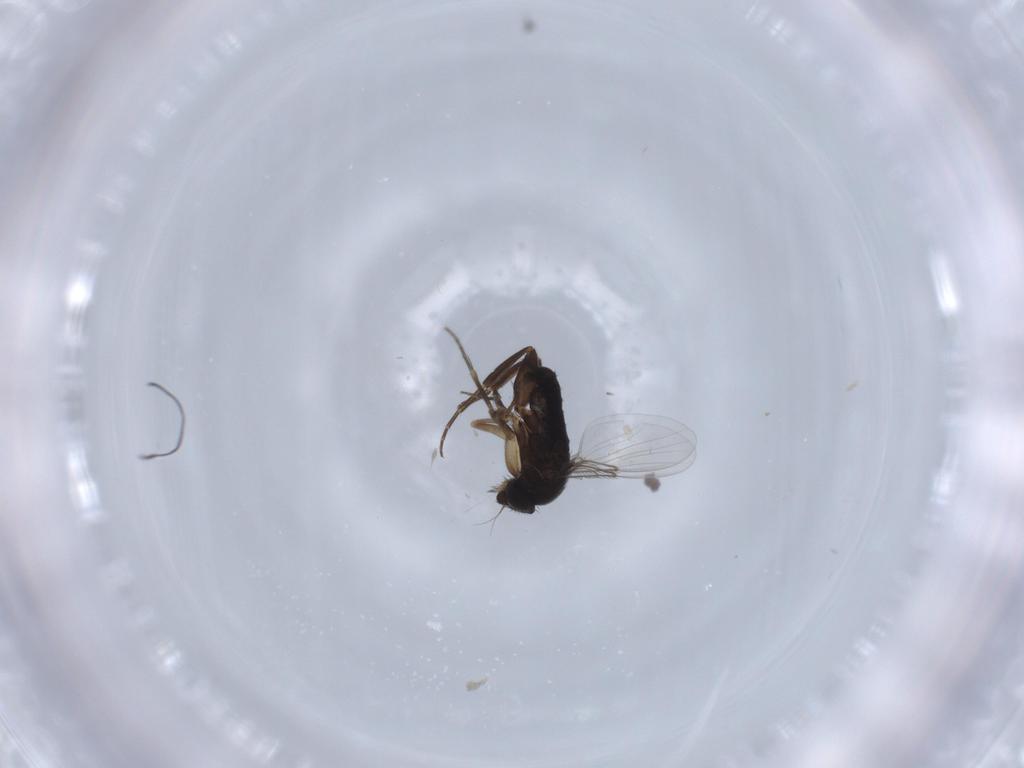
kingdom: Animalia
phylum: Arthropoda
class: Insecta
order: Diptera
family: Phoridae
